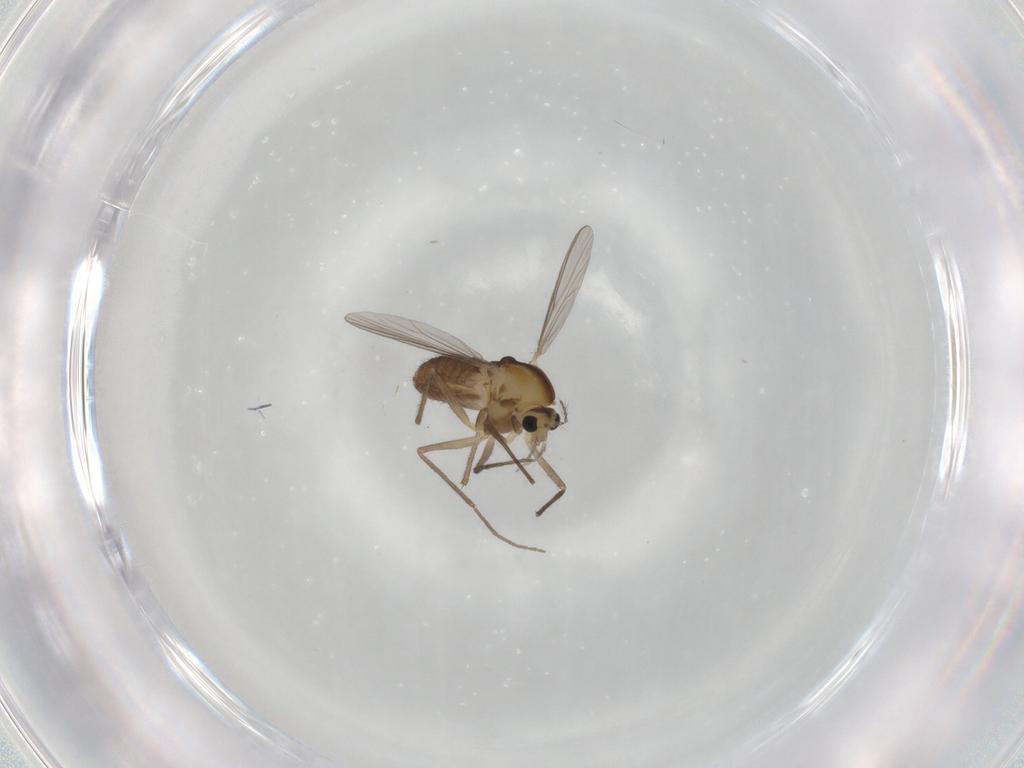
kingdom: Animalia
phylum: Arthropoda
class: Insecta
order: Diptera
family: Chironomidae
